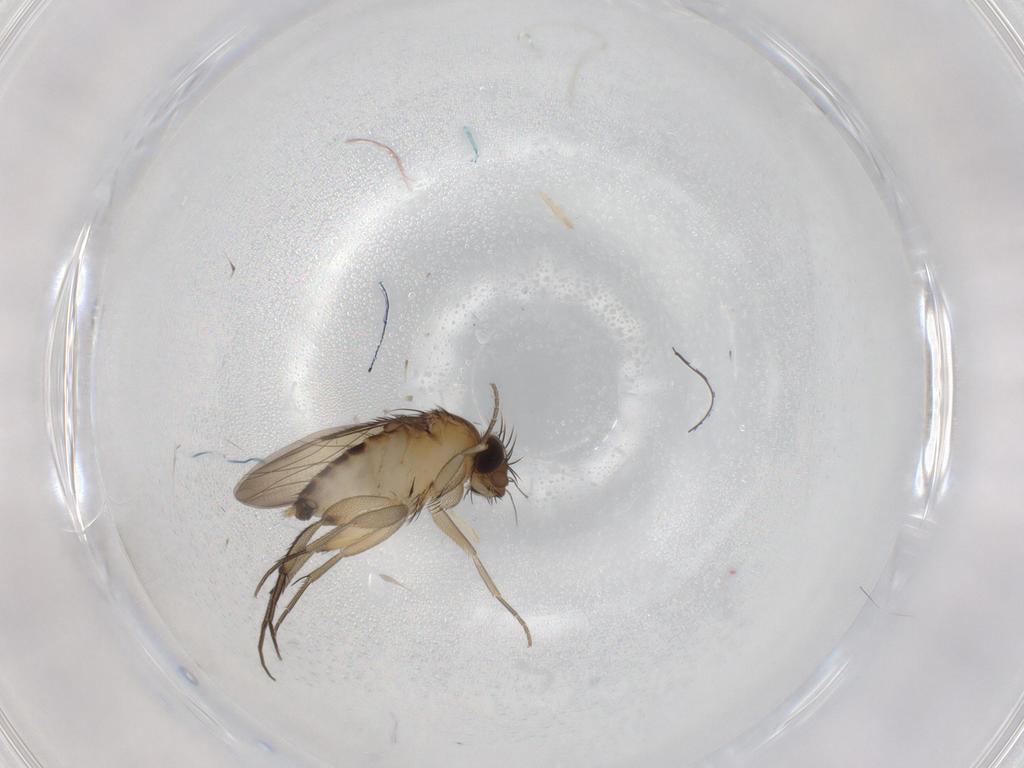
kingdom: Animalia
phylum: Arthropoda
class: Insecta
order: Diptera
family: Phoridae
